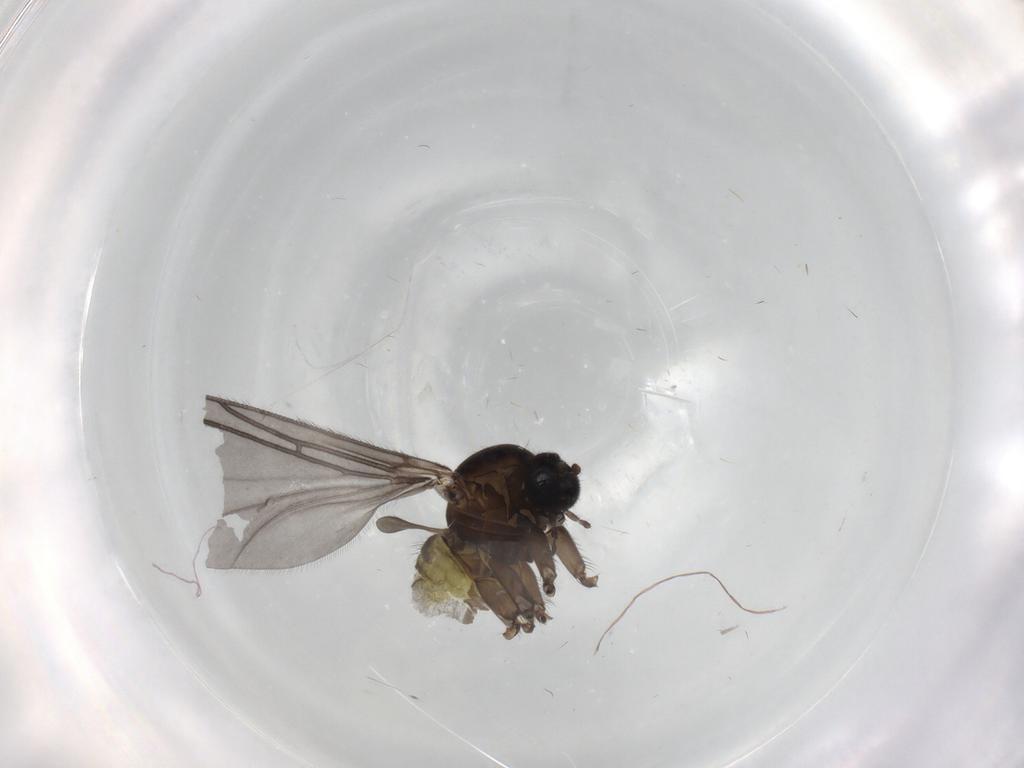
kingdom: Animalia
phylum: Arthropoda
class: Insecta
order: Diptera
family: Sciaridae
